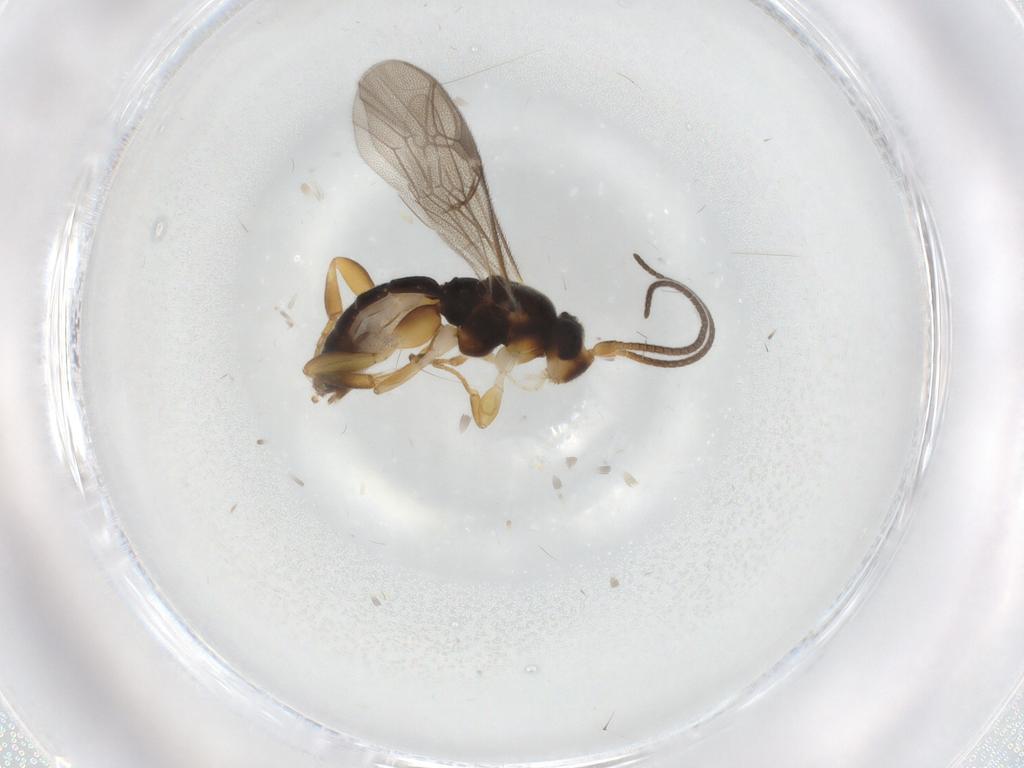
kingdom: Animalia
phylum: Arthropoda
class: Insecta
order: Hymenoptera
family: Ichneumonidae
